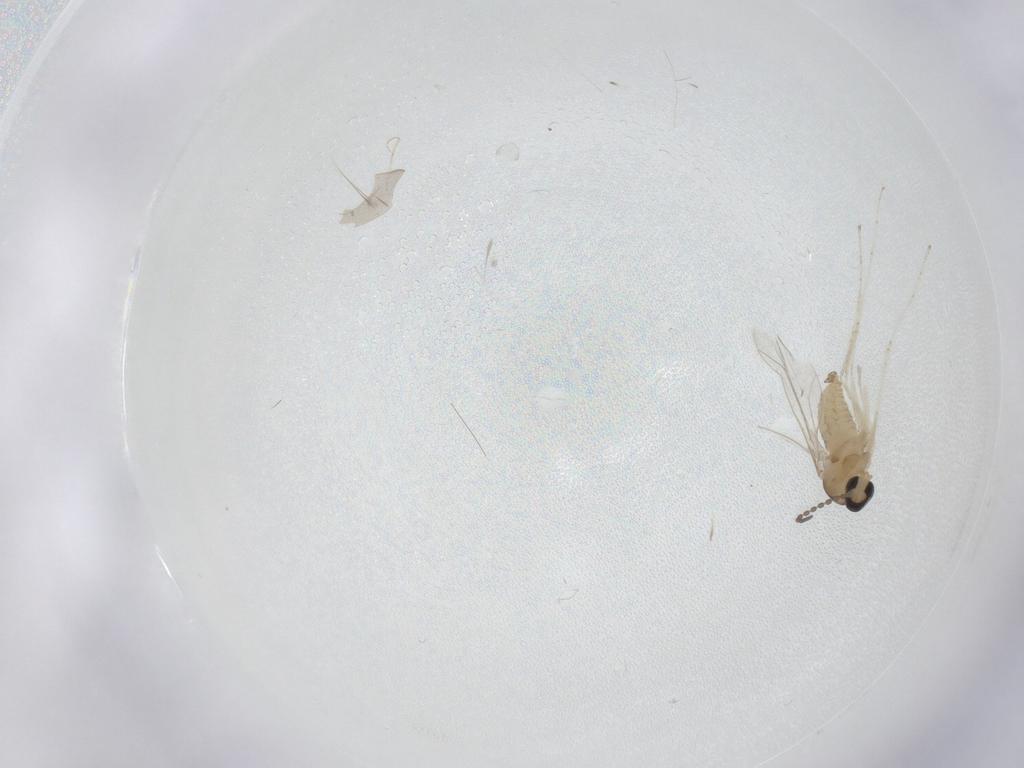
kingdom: Animalia
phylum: Arthropoda
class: Insecta
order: Diptera
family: Cecidomyiidae
